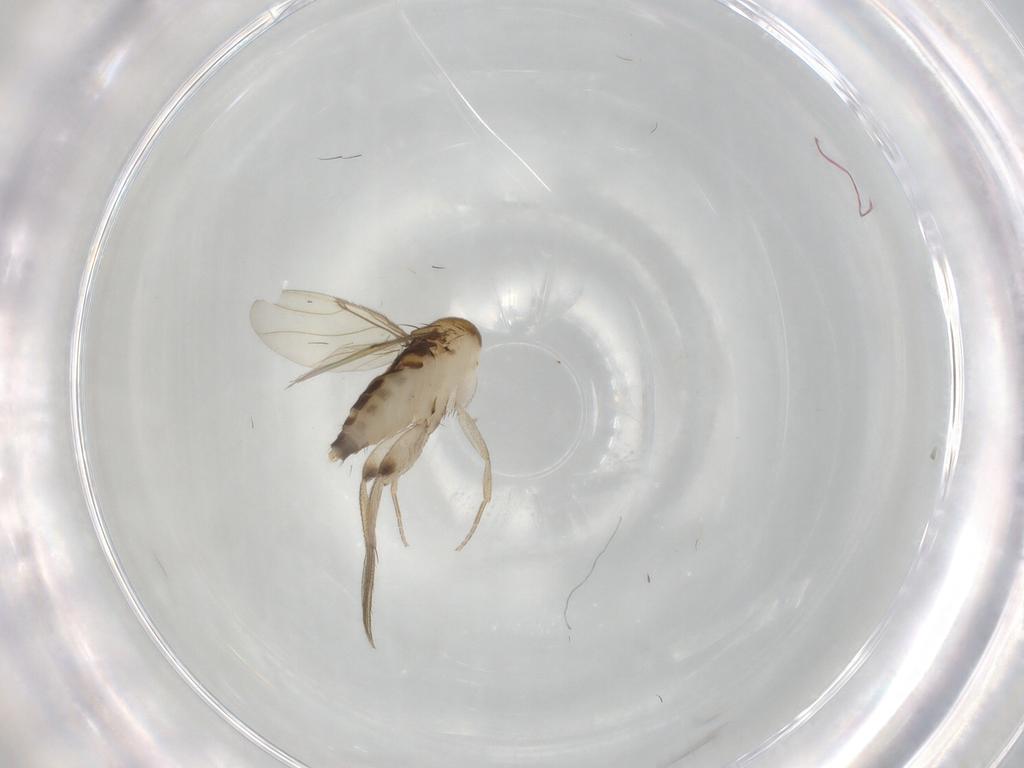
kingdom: Animalia
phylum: Arthropoda
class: Insecta
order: Diptera
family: Phoridae
